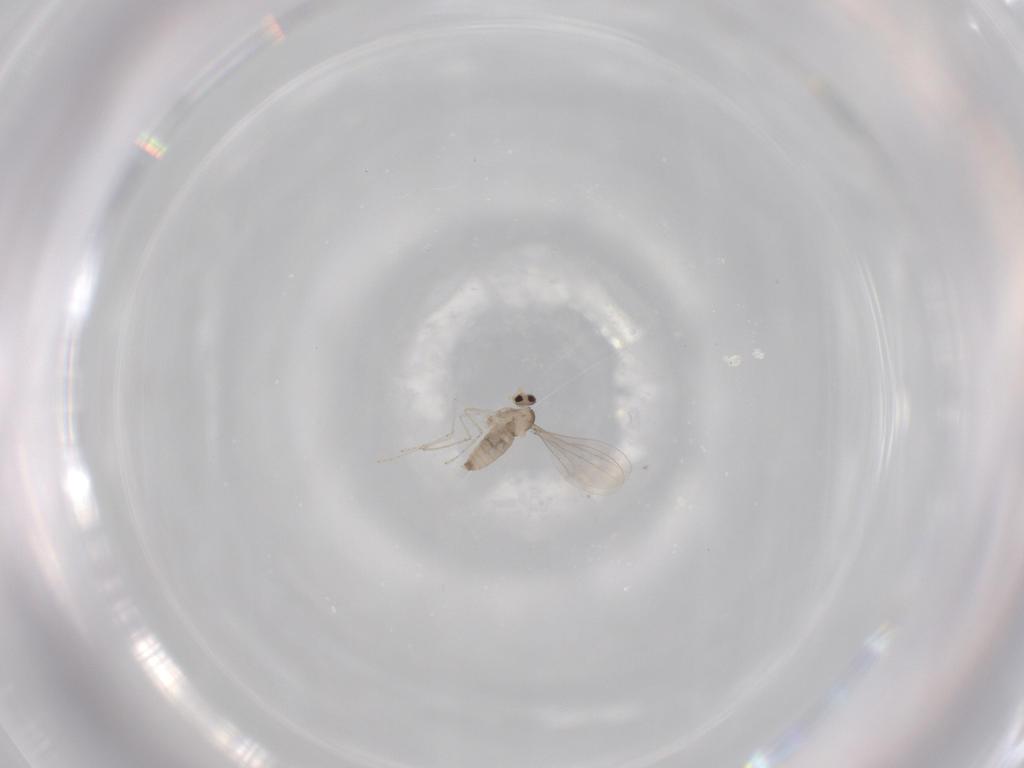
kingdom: Animalia
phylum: Arthropoda
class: Insecta
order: Diptera
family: Cecidomyiidae
